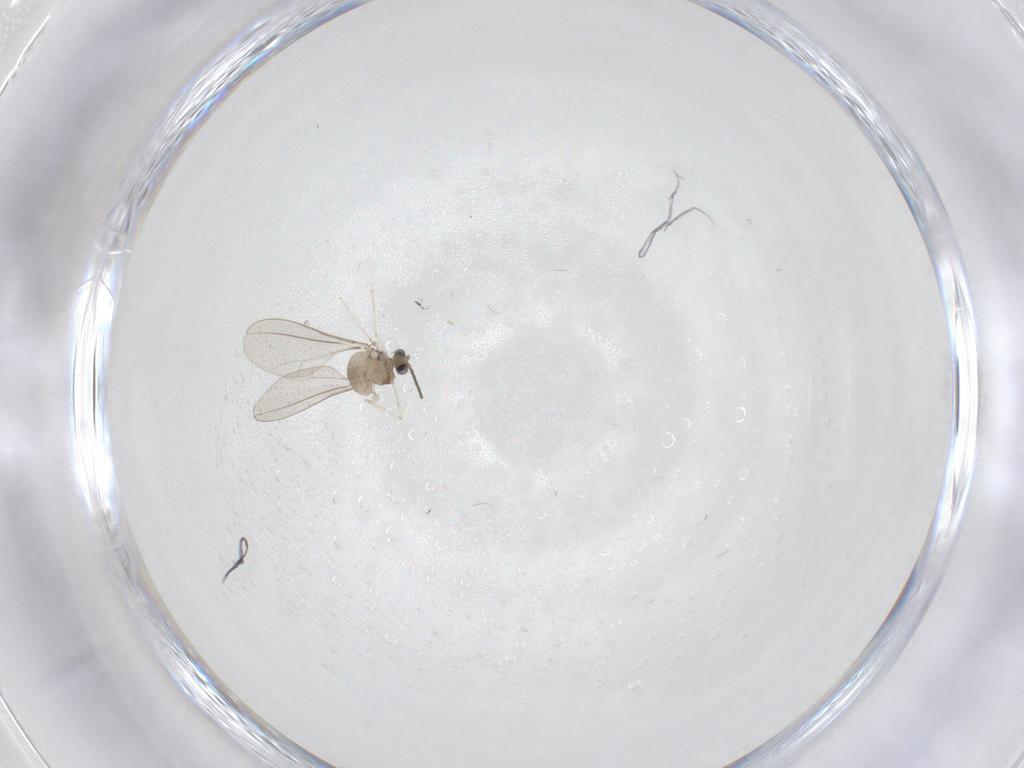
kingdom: Animalia
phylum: Arthropoda
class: Insecta
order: Diptera
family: Cecidomyiidae
